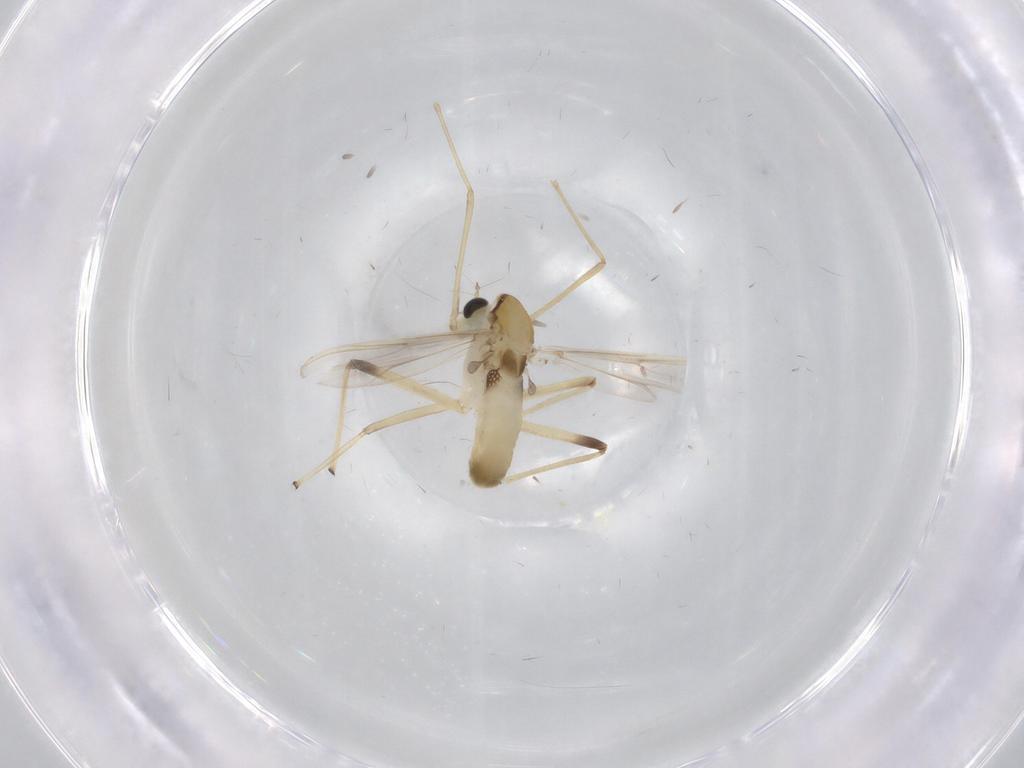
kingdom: Animalia
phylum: Arthropoda
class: Insecta
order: Diptera
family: Chironomidae
